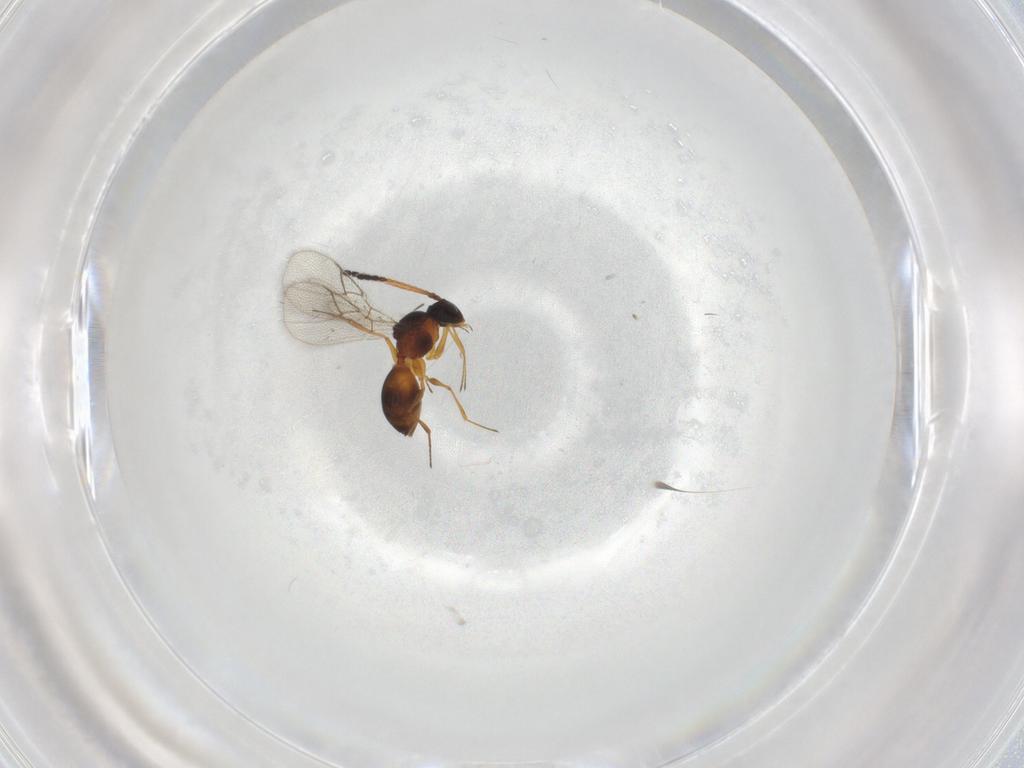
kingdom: Animalia
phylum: Arthropoda
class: Insecta
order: Hymenoptera
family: Figitidae
